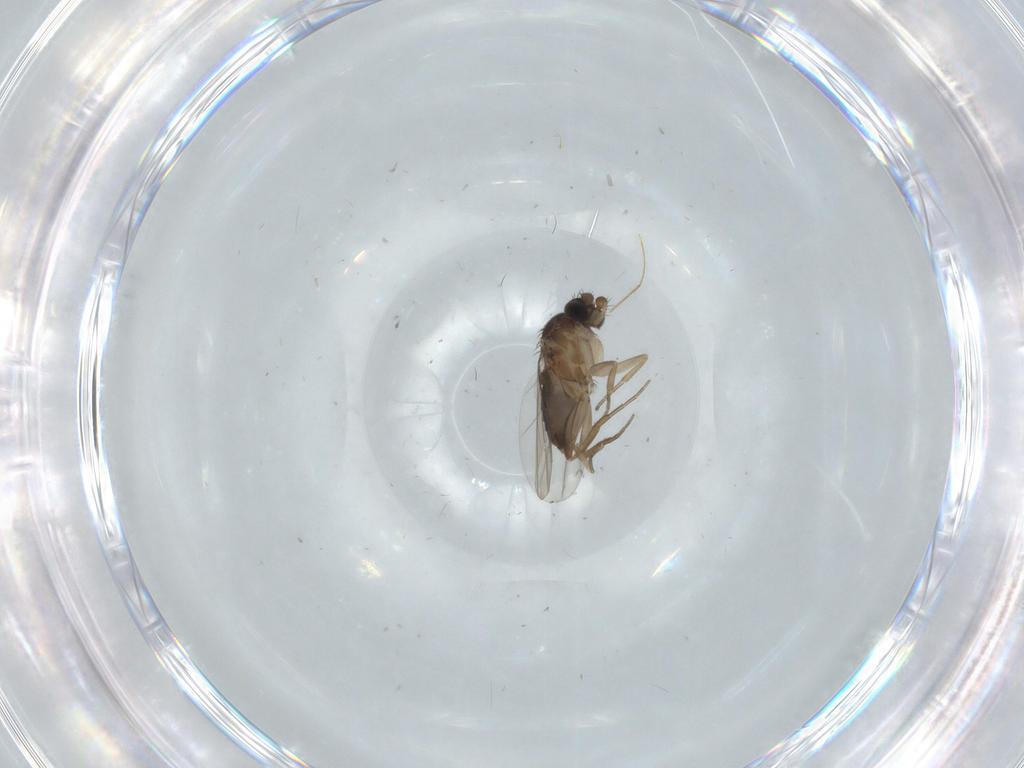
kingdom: Animalia
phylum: Arthropoda
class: Insecta
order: Diptera
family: Phoridae
